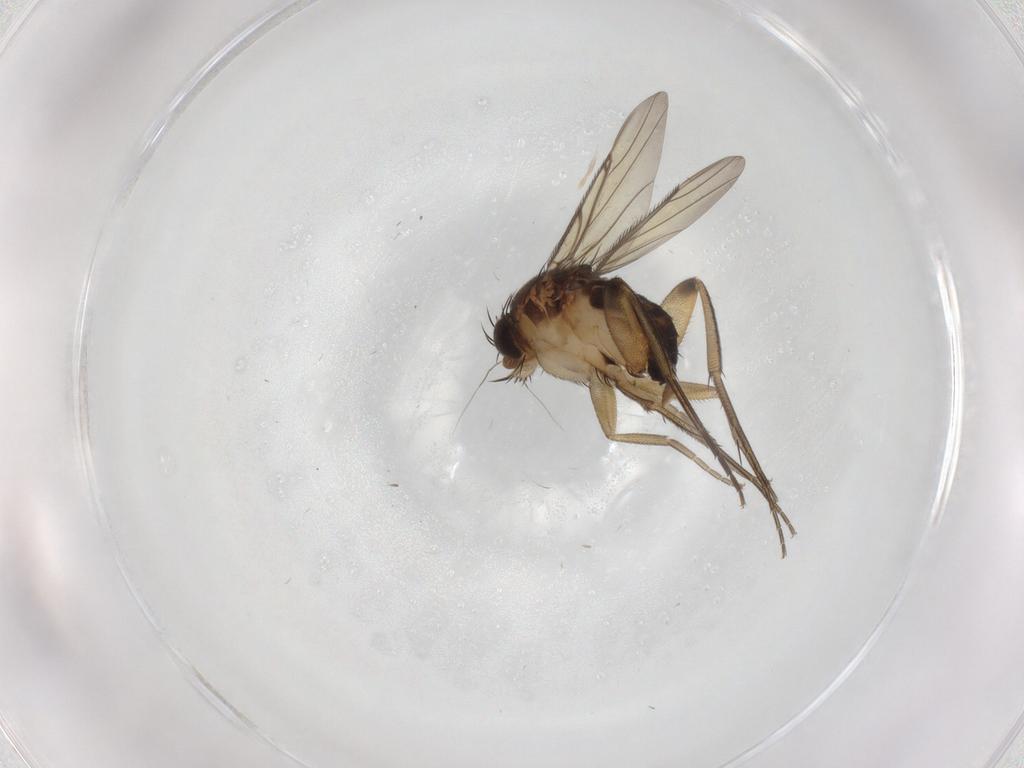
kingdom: Animalia
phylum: Arthropoda
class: Insecta
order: Diptera
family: Phoridae
